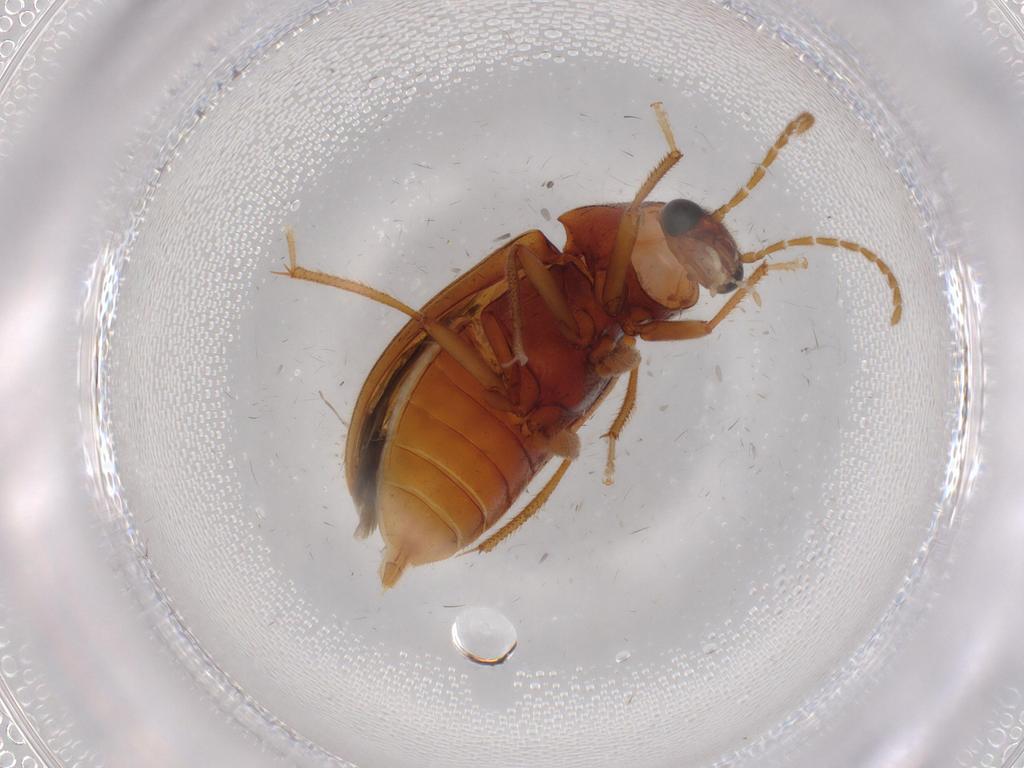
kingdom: Animalia
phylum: Arthropoda
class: Insecta
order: Coleoptera
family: Ptilodactylidae
